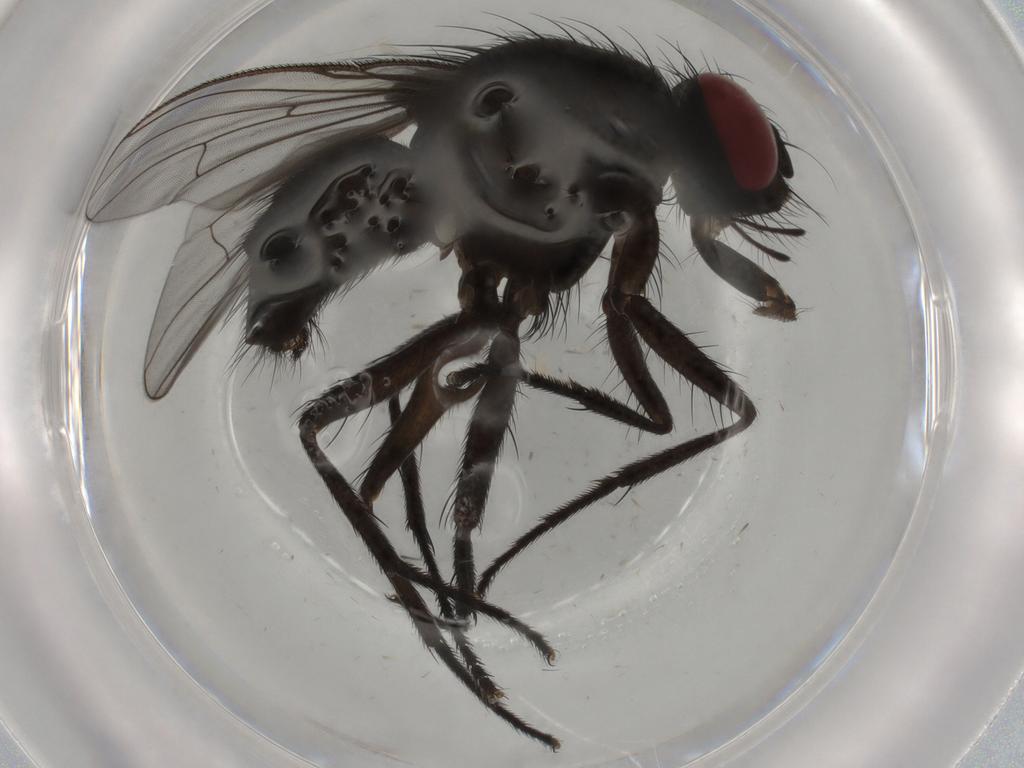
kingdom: Animalia
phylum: Arthropoda
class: Insecta
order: Diptera
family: Dolichopodidae
